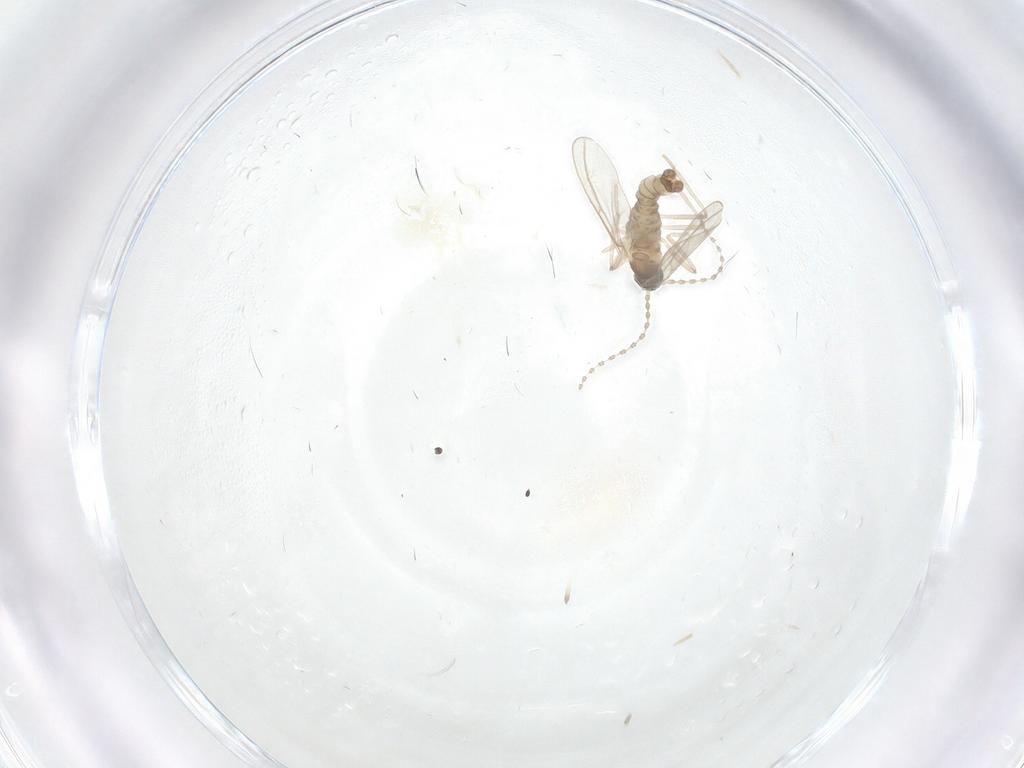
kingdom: Animalia
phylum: Arthropoda
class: Insecta
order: Diptera
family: Cecidomyiidae
